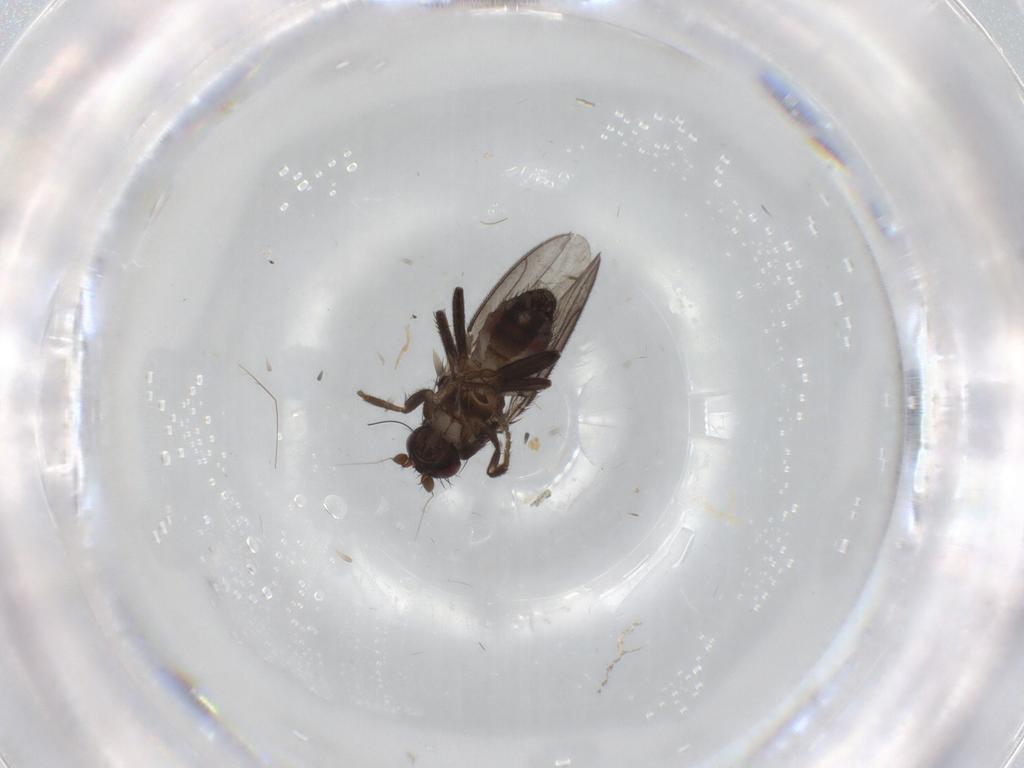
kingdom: Animalia
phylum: Arthropoda
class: Insecta
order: Diptera
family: Sphaeroceridae
